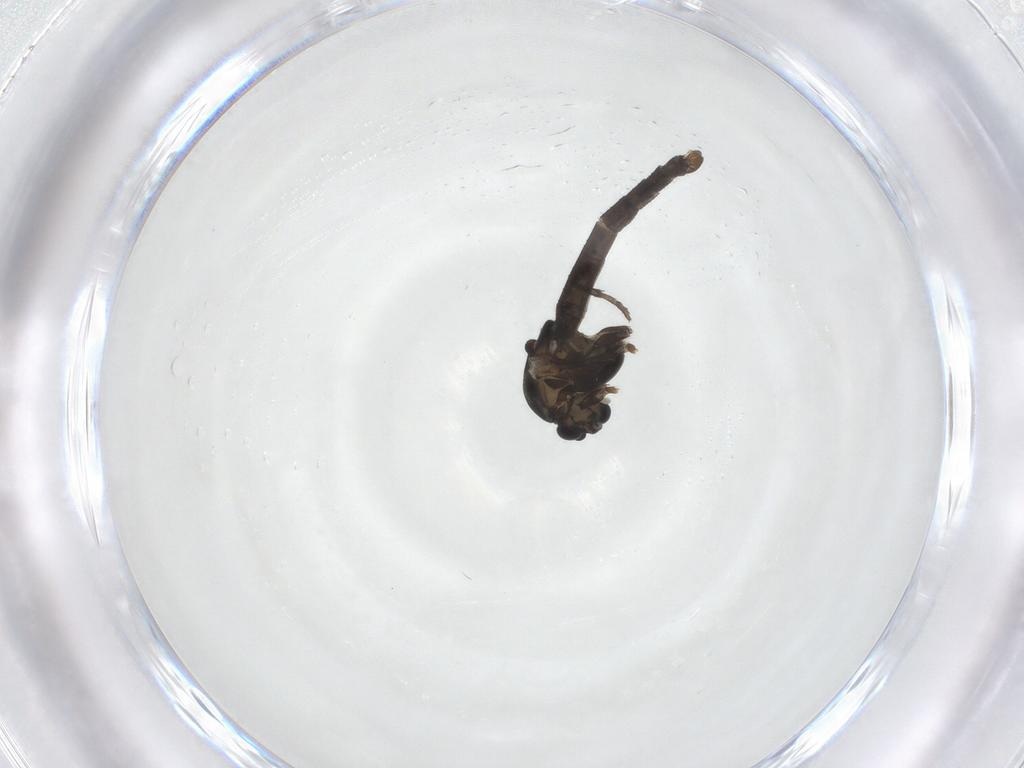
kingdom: Animalia
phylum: Arthropoda
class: Insecta
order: Diptera
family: Chironomidae
